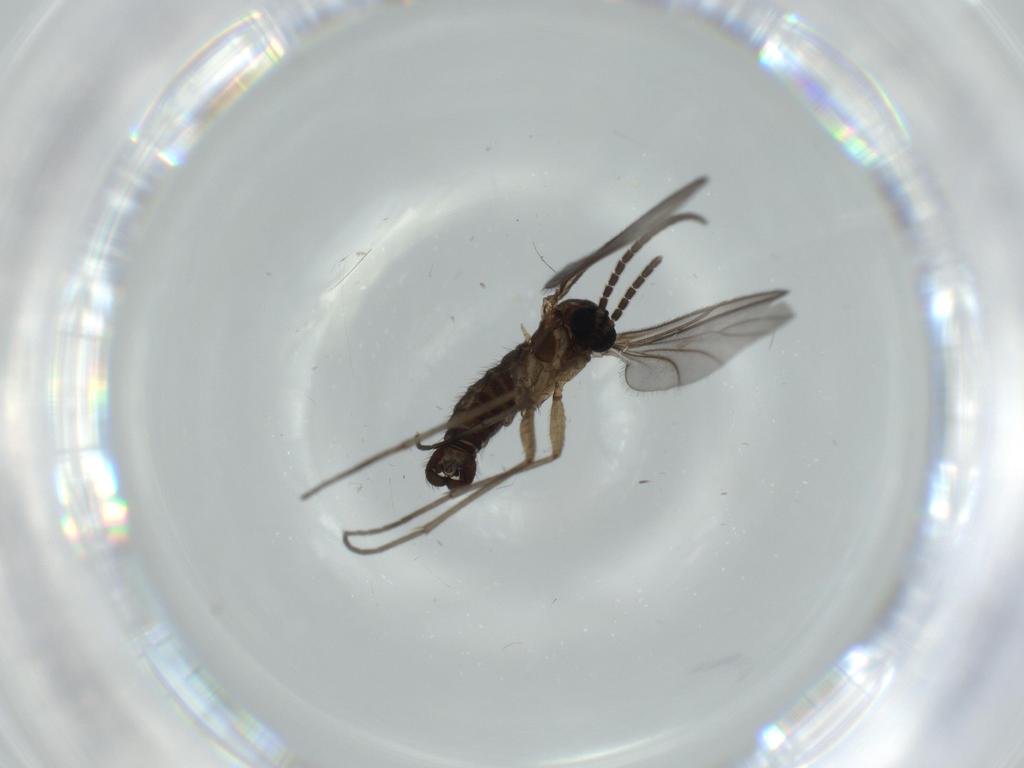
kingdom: Animalia
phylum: Arthropoda
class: Insecta
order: Diptera
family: Sciaridae
